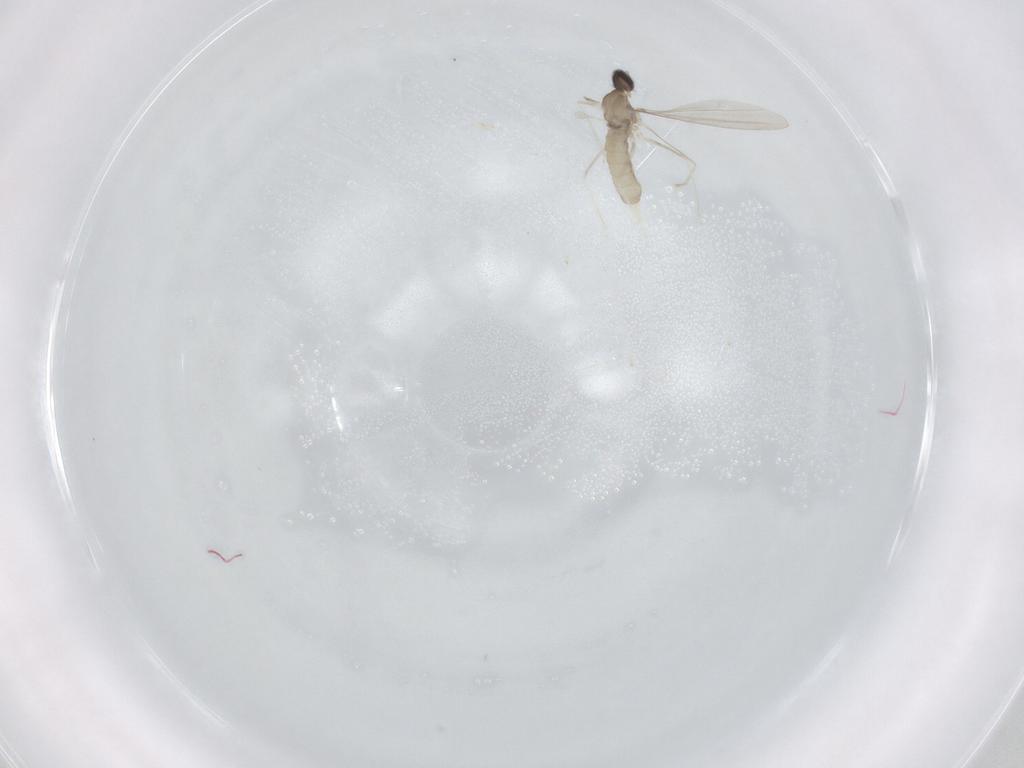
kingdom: Animalia
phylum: Arthropoda
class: Insecta
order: Diptera
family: Cecidomyiidae
